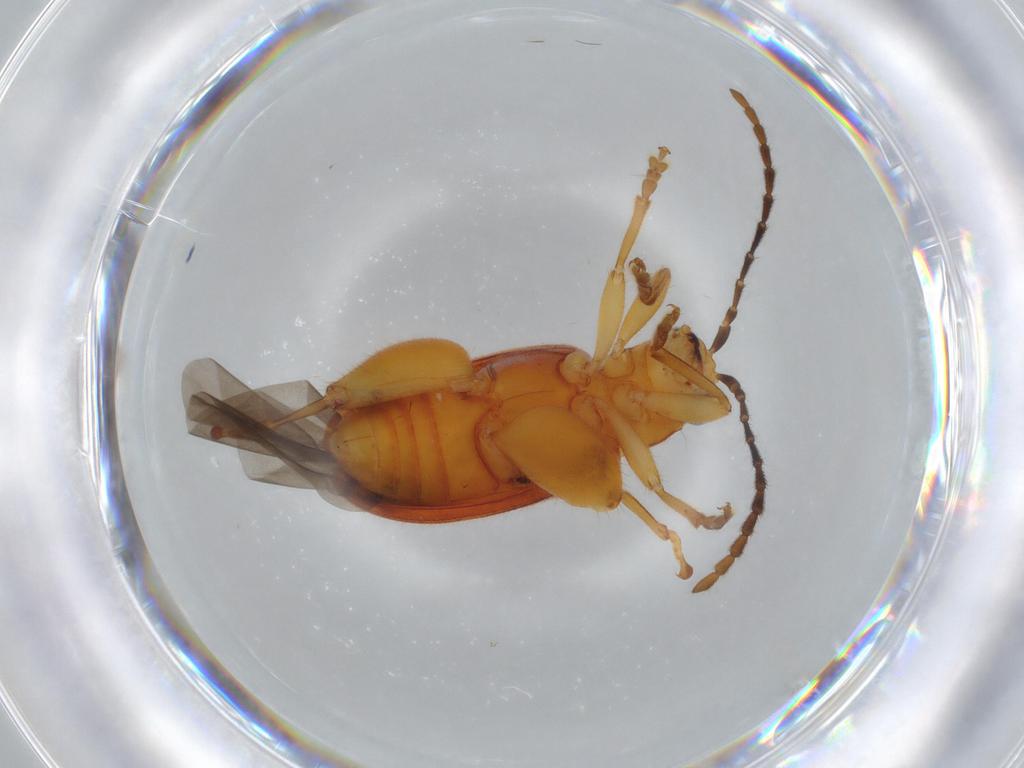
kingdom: Animalia
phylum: Arthropoda
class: Insecta
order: Coleoptera
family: Chrysomelidae
